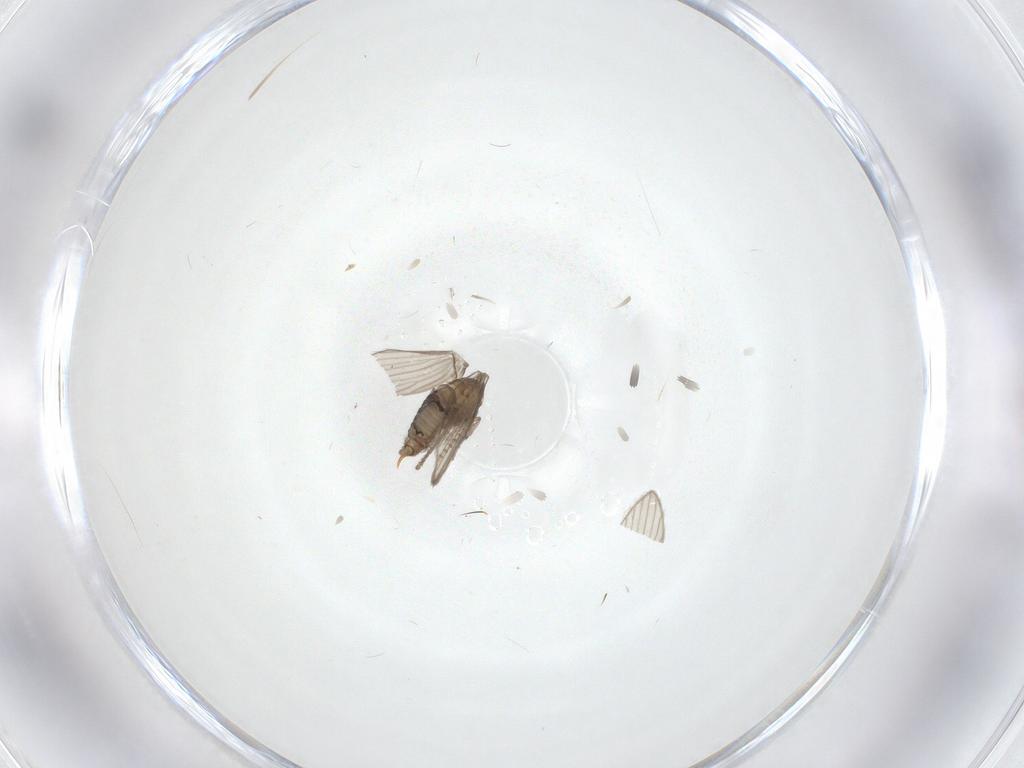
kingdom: Animalia
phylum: Arthropoda
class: Insecta
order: Diptera
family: Psychodidae
